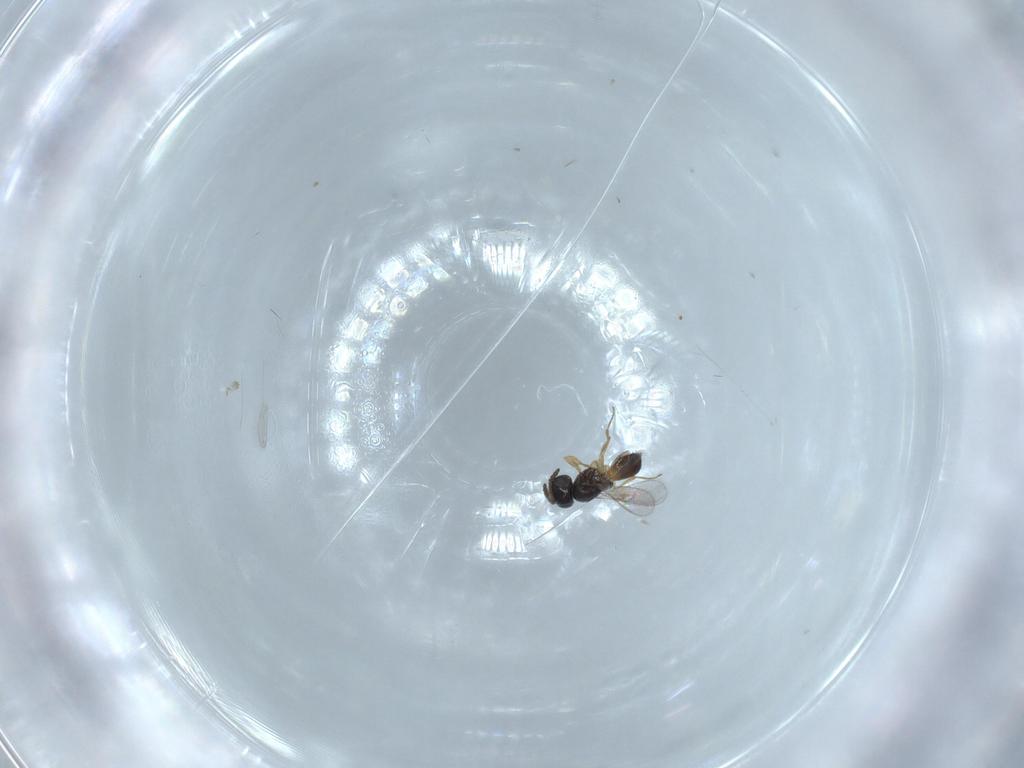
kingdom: Animalia
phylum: Arthropoda
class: Insecta
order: Hymenoptera
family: Scelionidae
